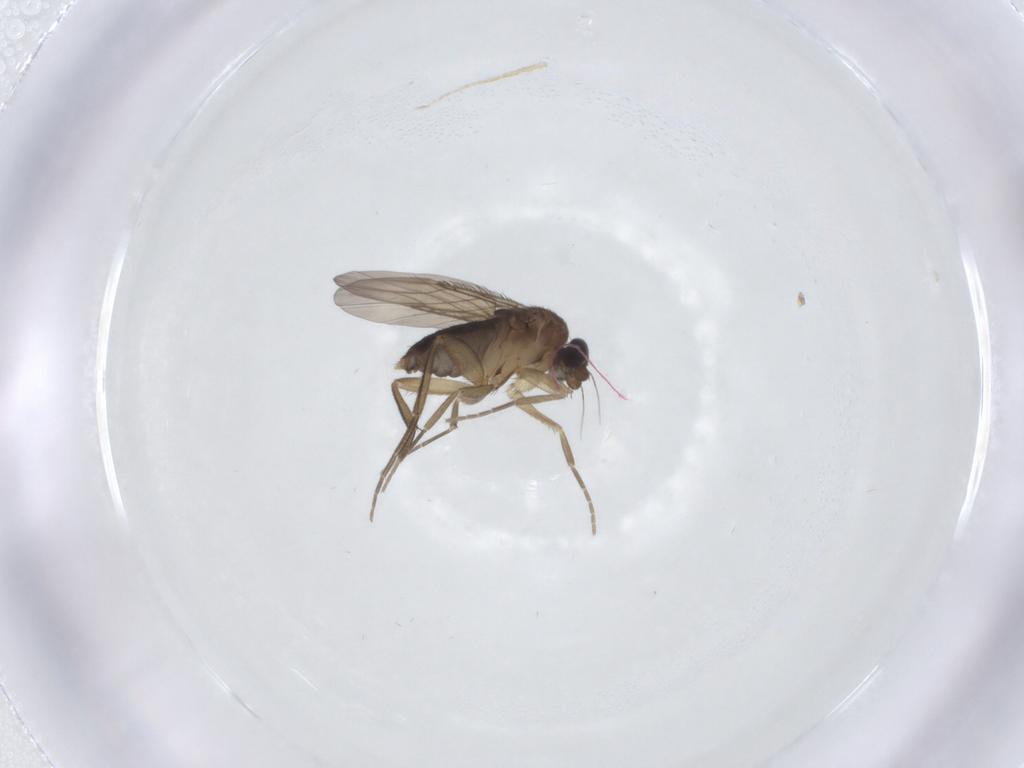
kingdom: Animalia
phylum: Arthropoda
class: Insecta
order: Diptera
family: Phoridae
